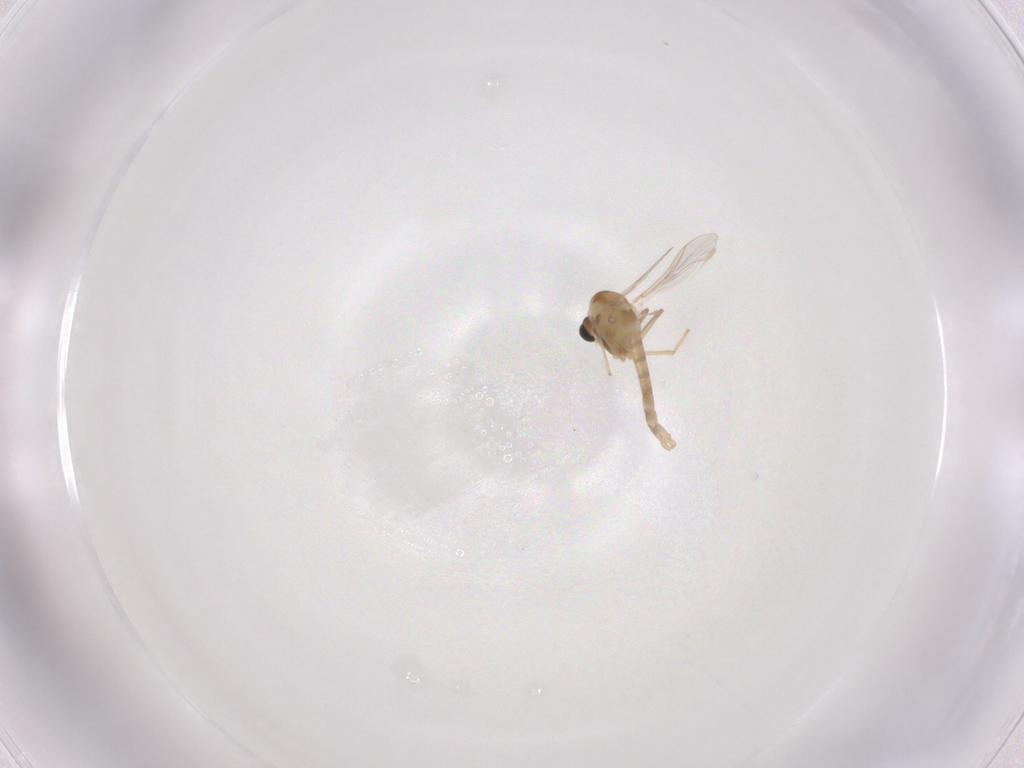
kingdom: Animalia
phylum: Arthropoda
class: Insecta
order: Diptera
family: Chironomidae
